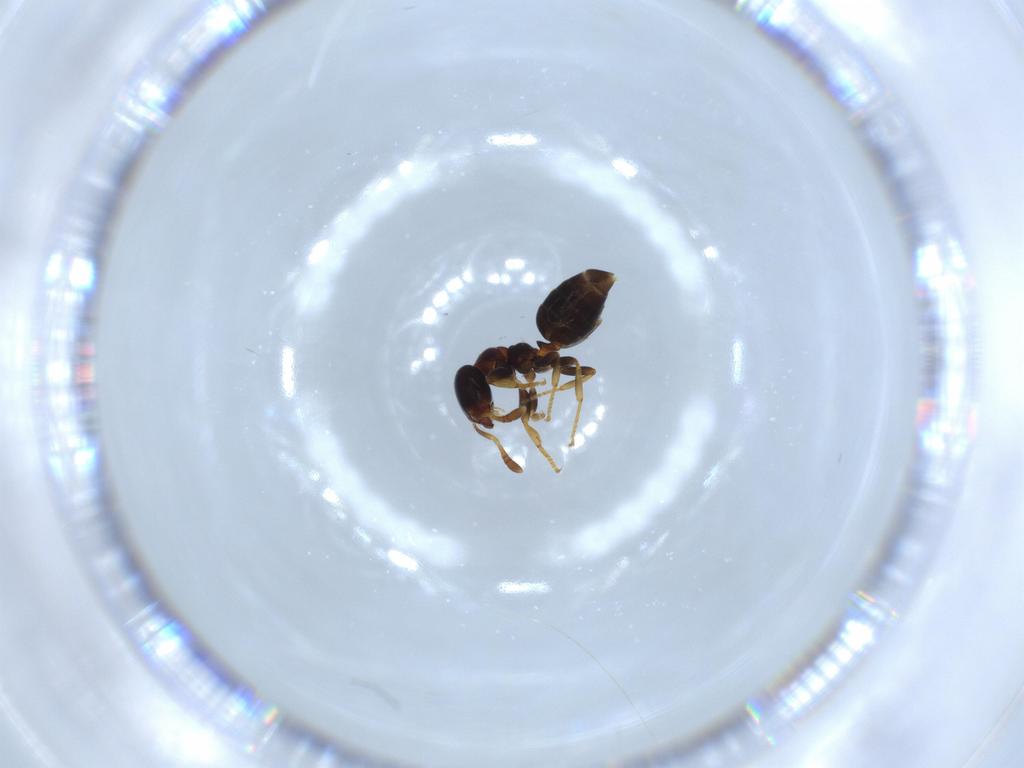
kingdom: Animalia
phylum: Arthropoda
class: Insecta
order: Hymenoptera
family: Formicidae
